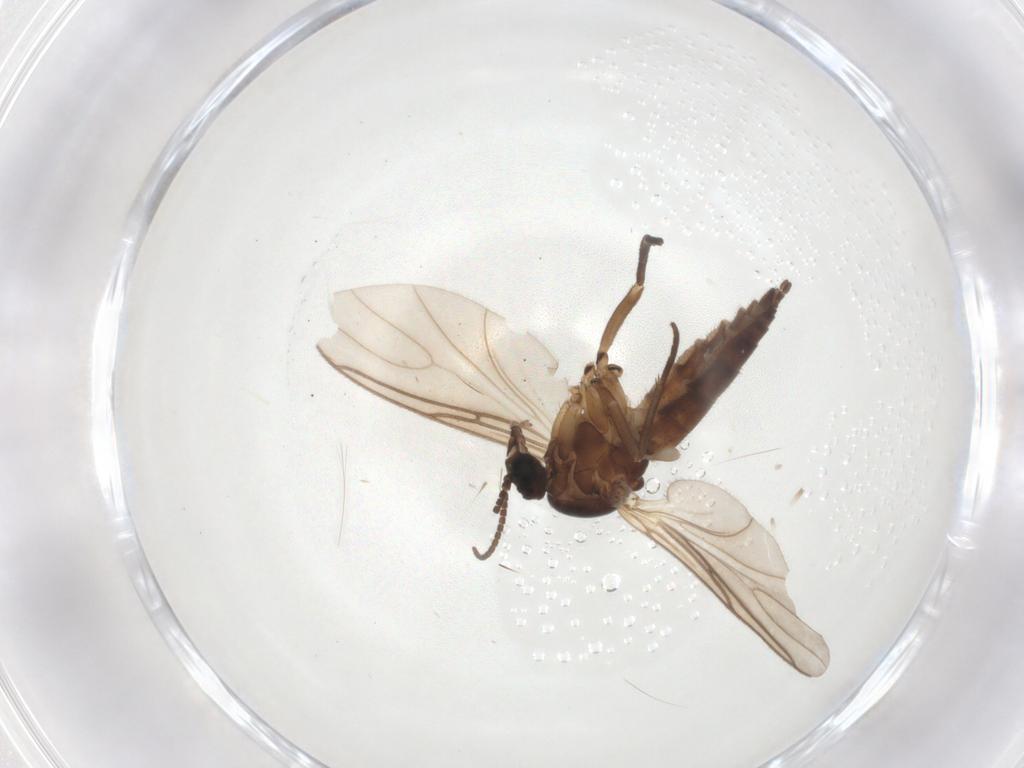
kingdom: Animalia
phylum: Arthropoda
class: Insecta
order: Diptera
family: Sciaridae
